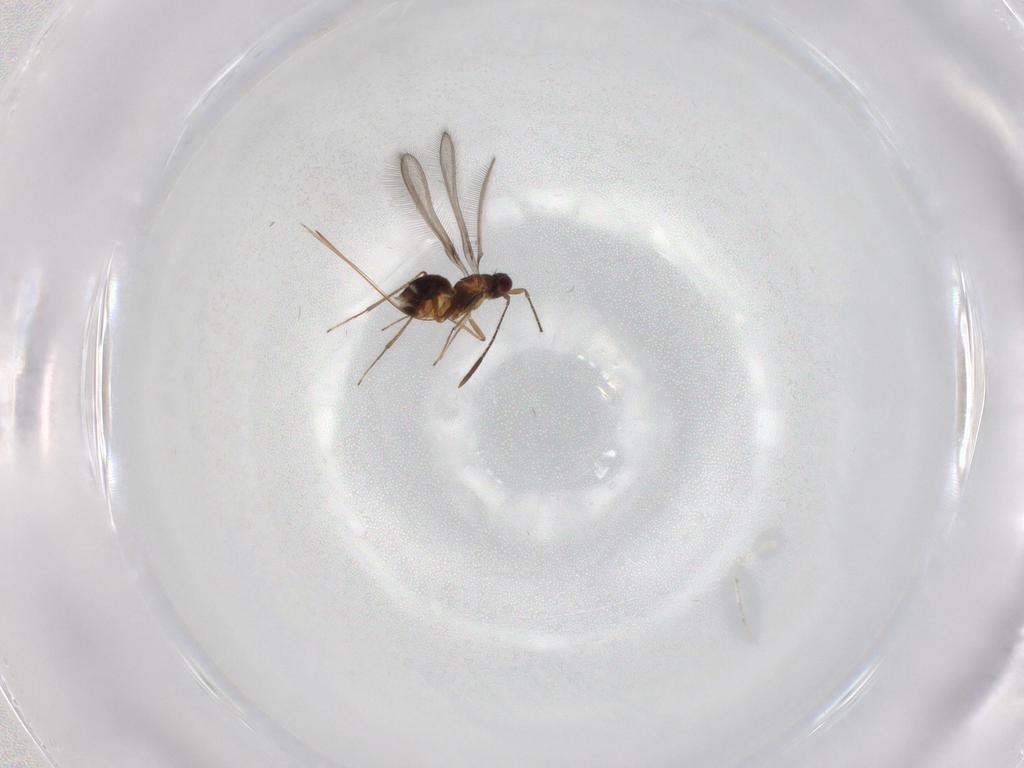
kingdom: Animalia
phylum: Arthropoda
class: Insecta
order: Hymenoptera
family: Mymaridae
